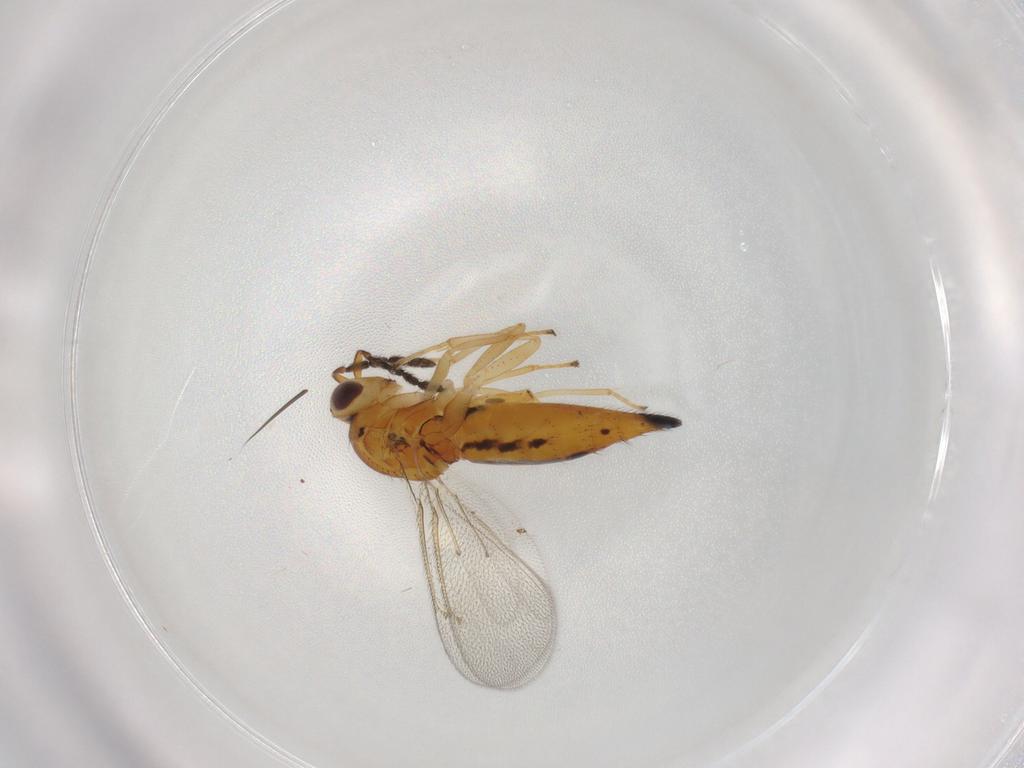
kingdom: Animalia
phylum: Arthropoda
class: Insecta
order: Hymenoptera
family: Eulophidae
